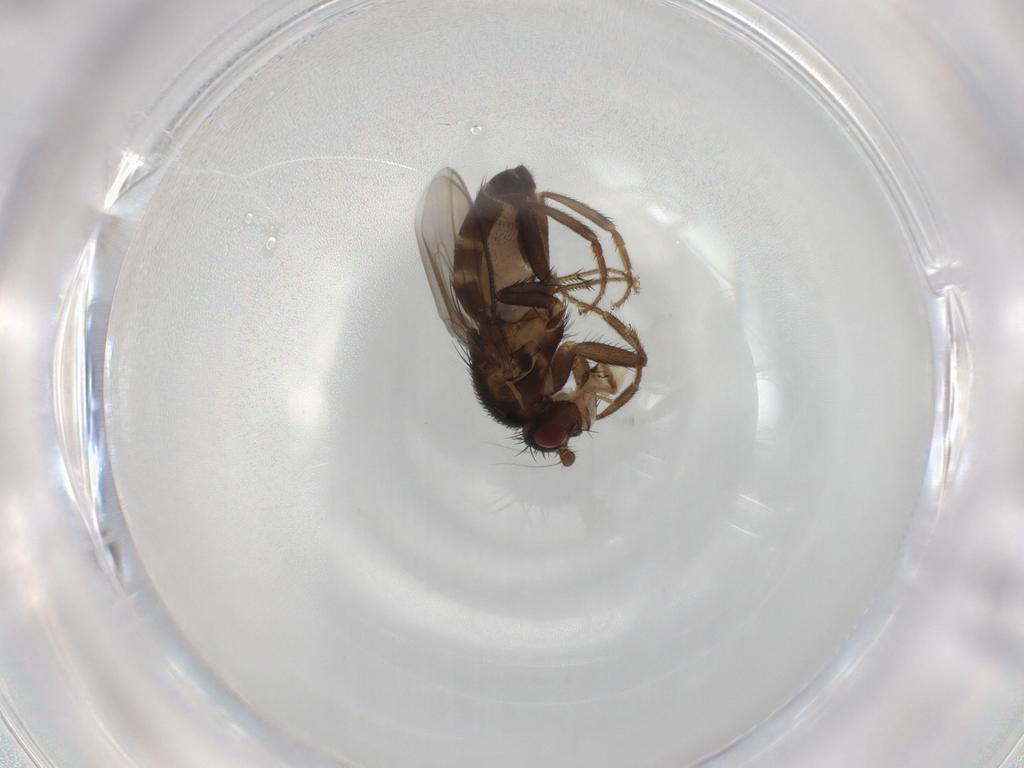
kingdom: Animalia
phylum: Arthropoda
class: Insecta
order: Diptera
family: Sphaeroceridae
